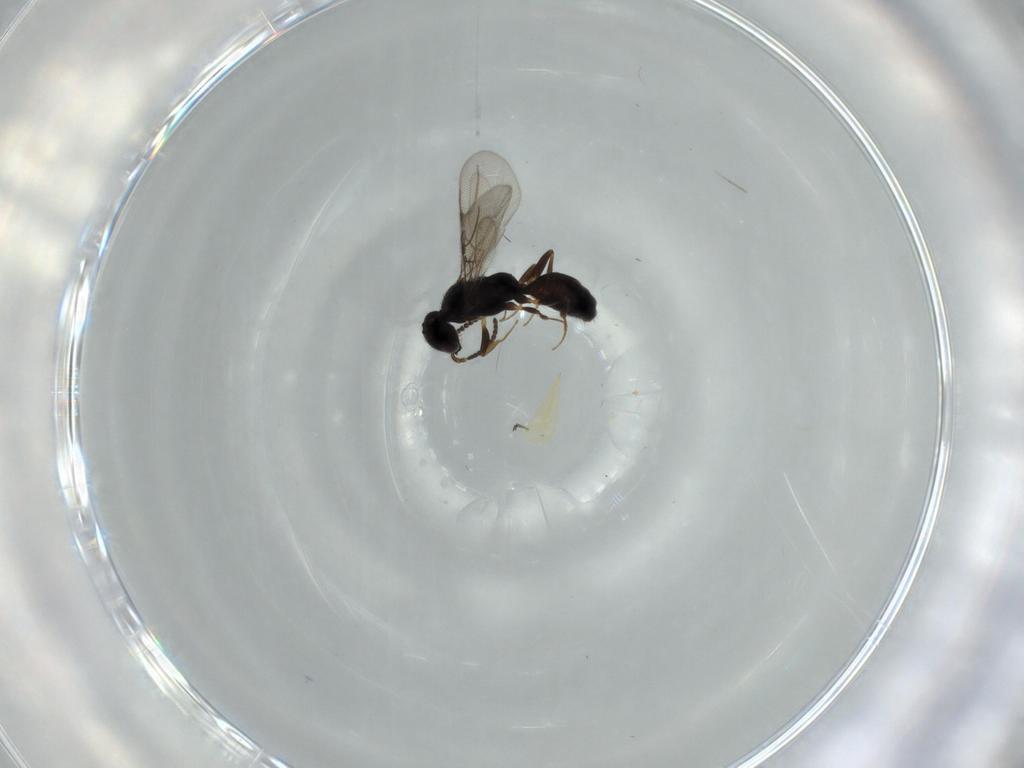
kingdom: Animalia
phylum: Arthropoda
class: Insecta
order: Hymenoptera
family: Bethylidae
